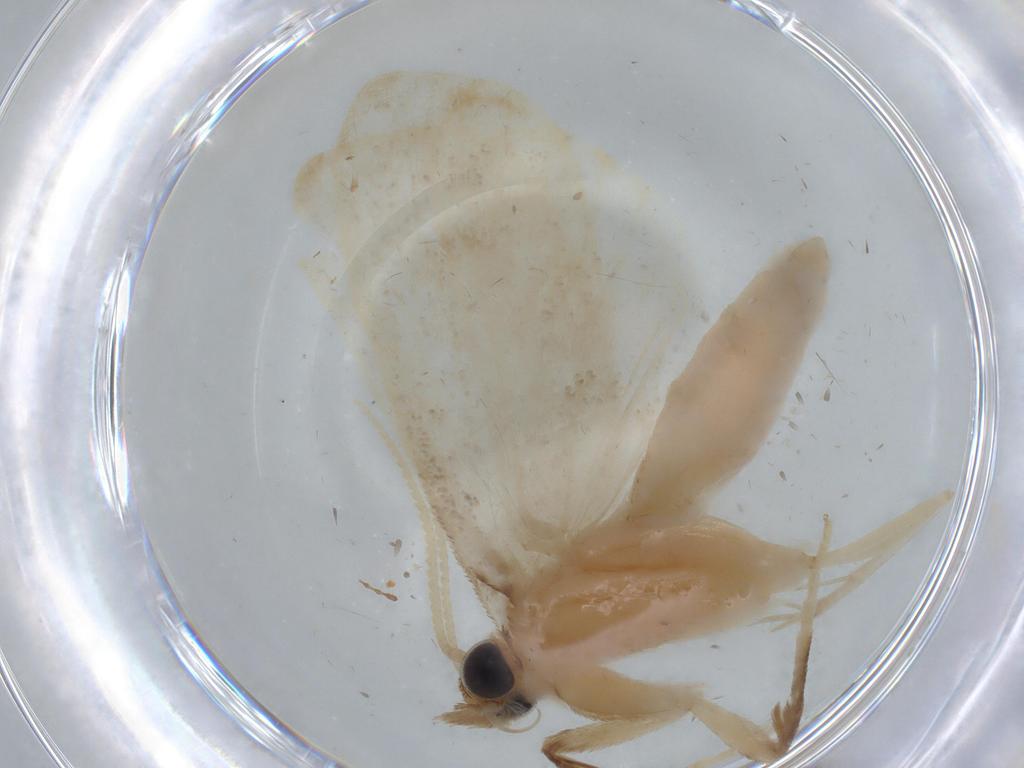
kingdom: Animalia
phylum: Arthropoda
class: Insecta
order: Lepidoptera
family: Crambidae
